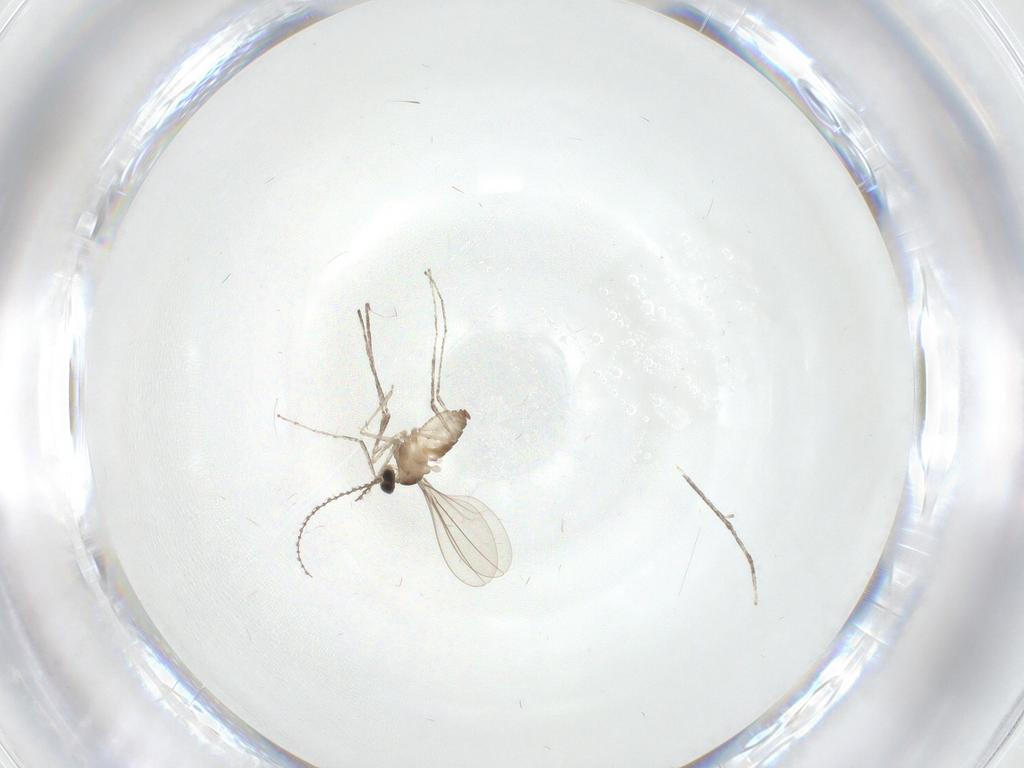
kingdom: Animalia
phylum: Arthropoda
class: Insecta
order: Diptera
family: Cecidomyiidae
